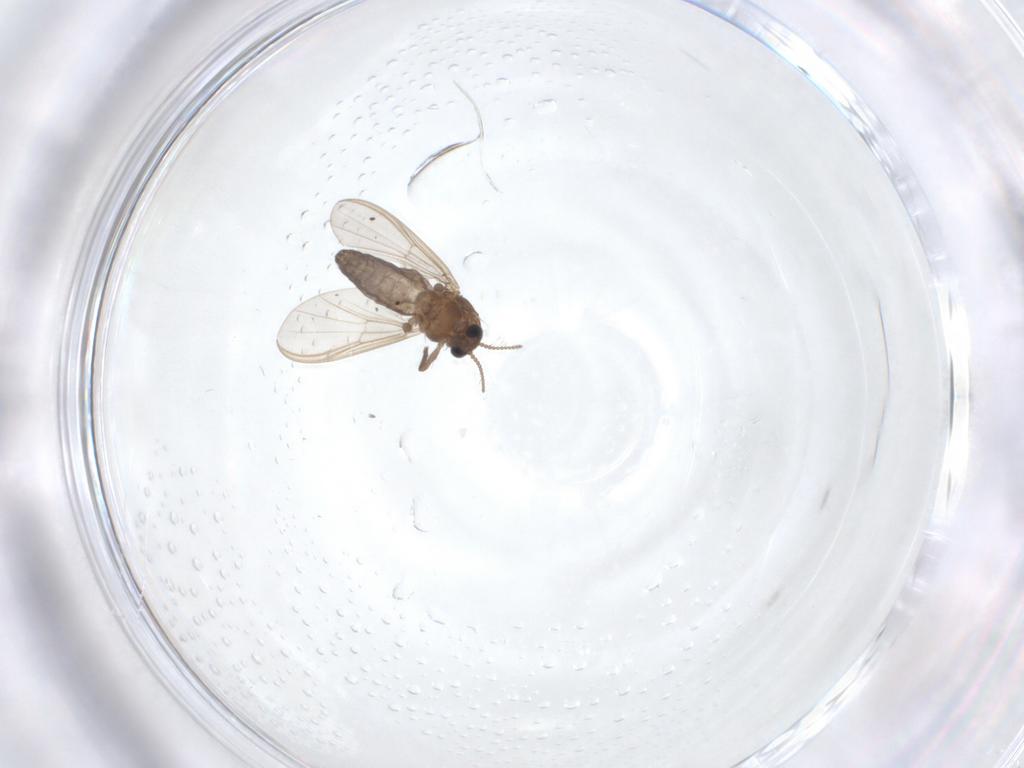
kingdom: Animalia
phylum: Arthropoda
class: Insecta
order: Diptera
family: Chironomidae
